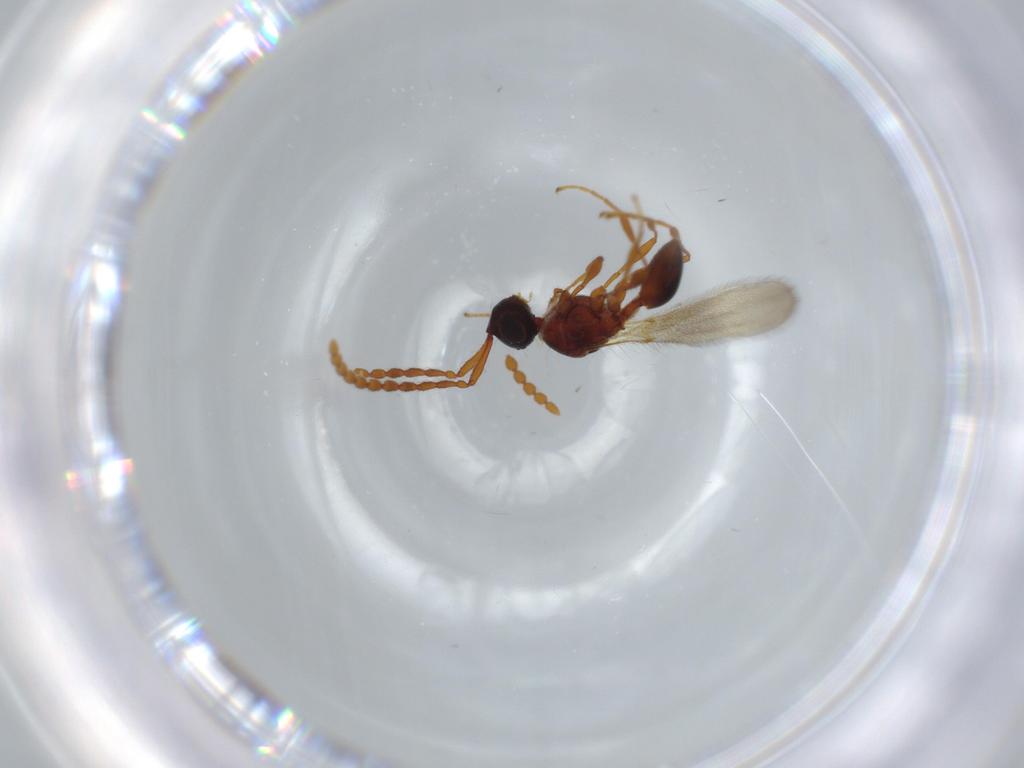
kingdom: Animalia
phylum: Arthropoda
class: Insecta
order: Hymenoptera
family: Diapriidae
